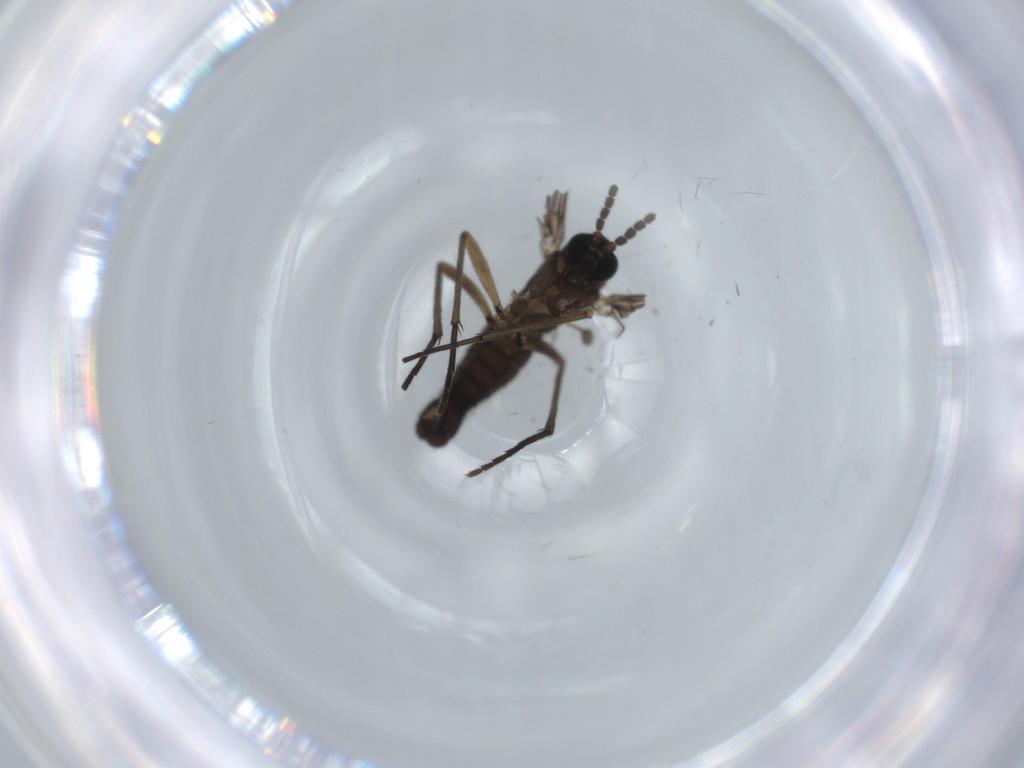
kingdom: Animalia
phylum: Arthropoda
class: Insecta
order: Diptera
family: Sciaridae
